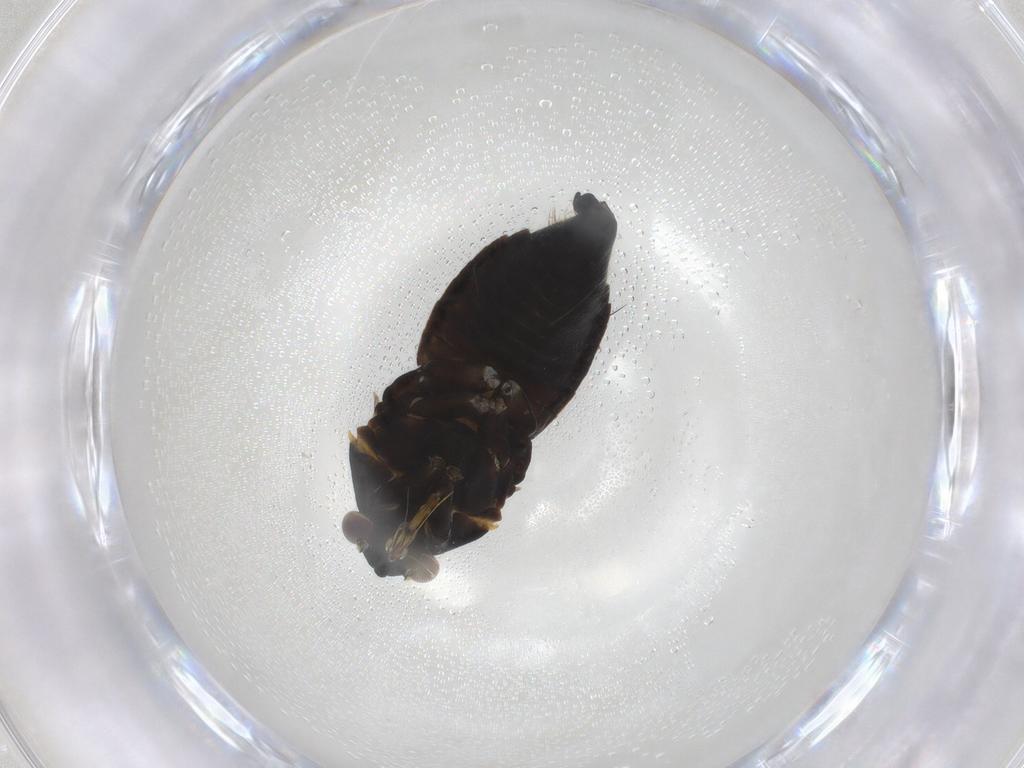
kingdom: Animalia
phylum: Arthropoda
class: Insecta
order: Hemiptera
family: Miridae
